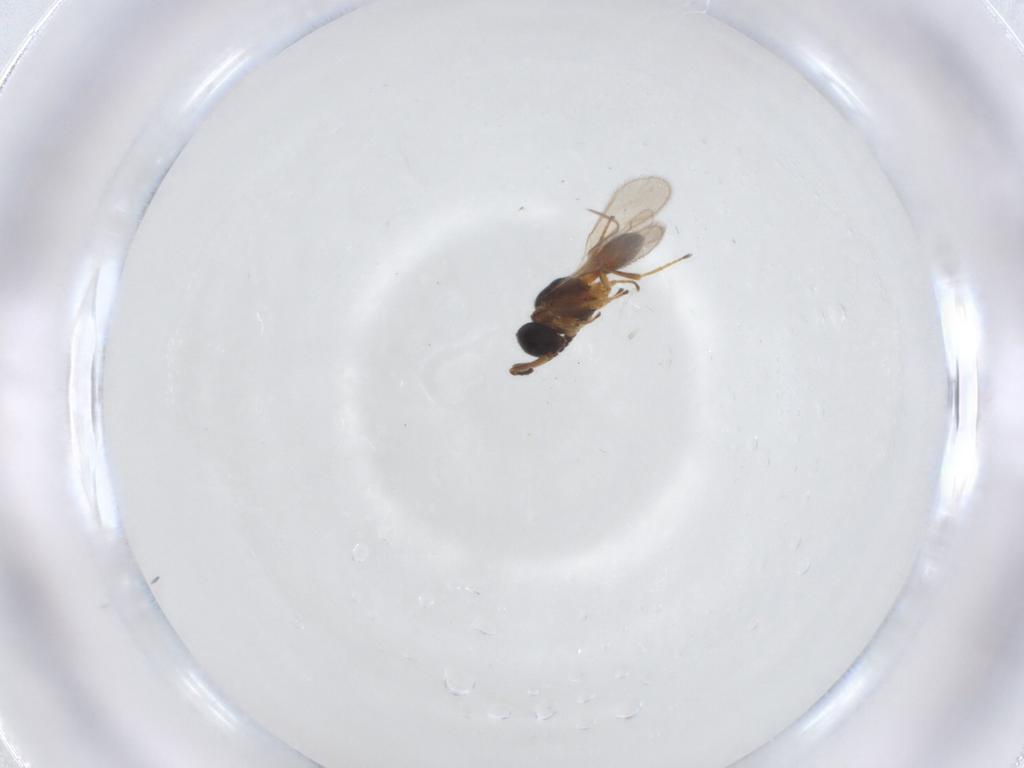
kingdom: Animalia
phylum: Arthropoda
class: Insecta
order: Hymenoptera
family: Scelionidae
